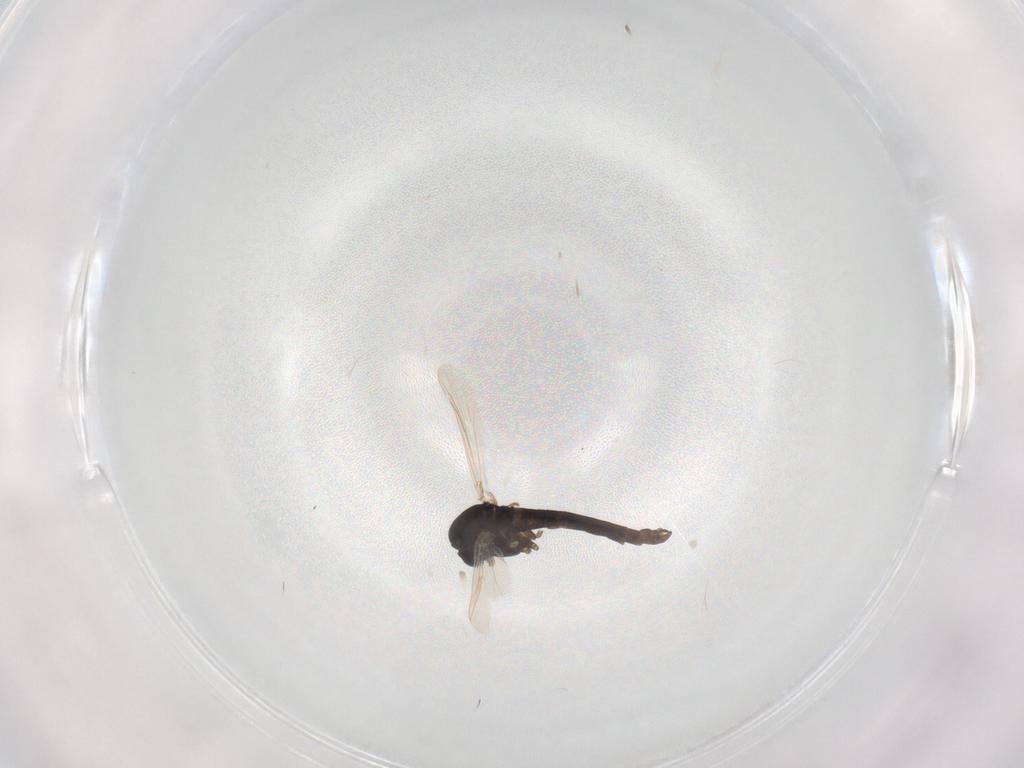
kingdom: Animalia
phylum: Arthropoda
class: Insecta
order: Diptera
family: Chironomidae
